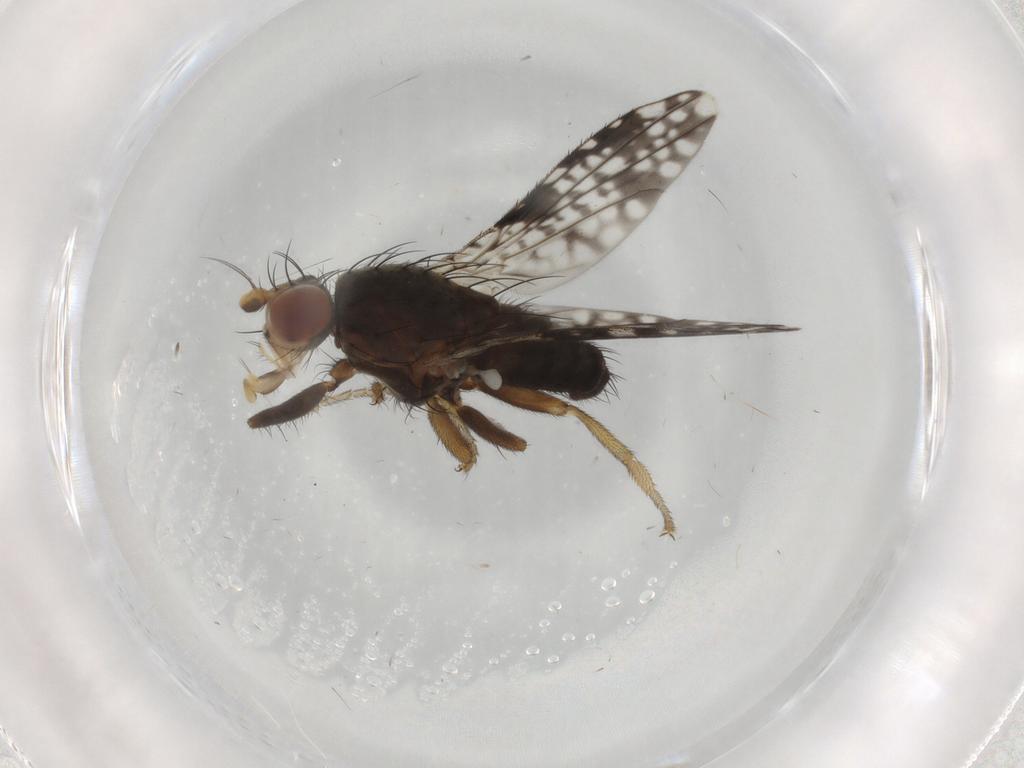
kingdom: Animalia
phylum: Arthropoda
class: Insecta
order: Diptera
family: Tephritidae
